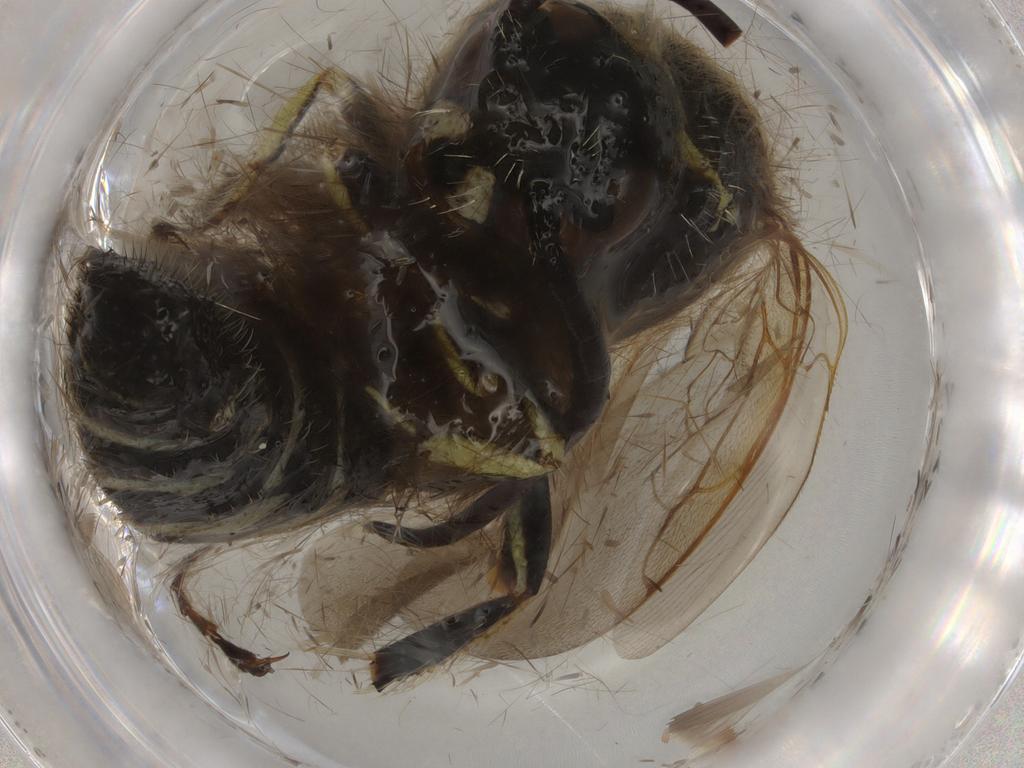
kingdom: Animalia
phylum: Arthropoda
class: Insecta
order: Hymenoptera
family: Scoliidae
